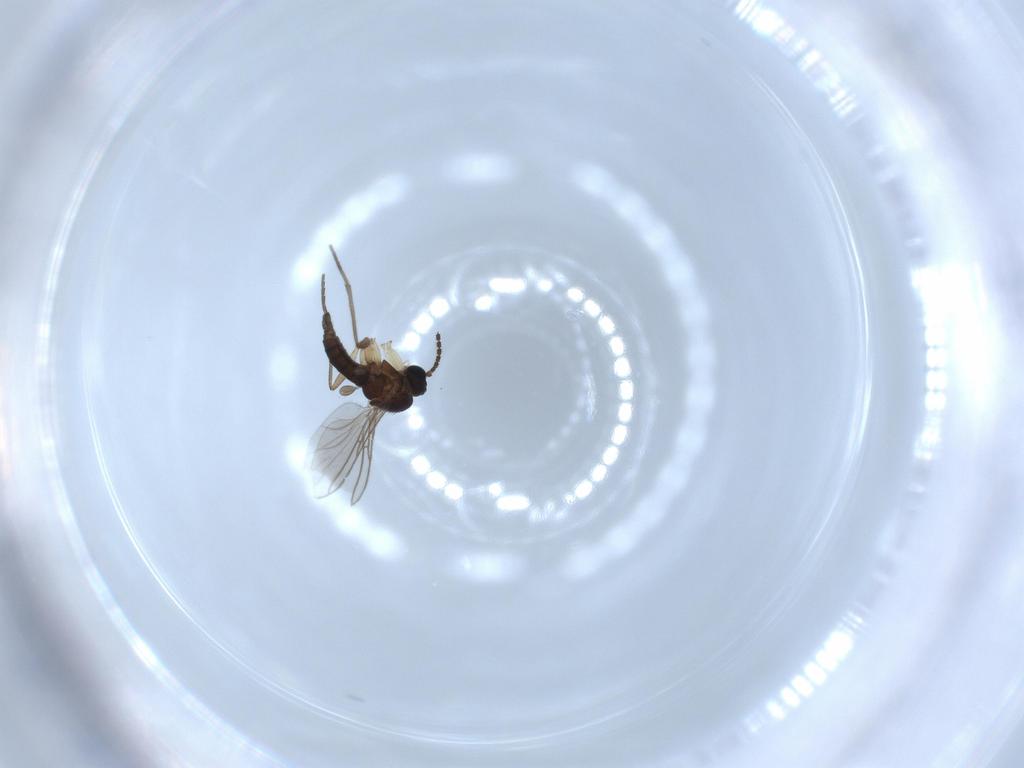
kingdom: Animalia
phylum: Arthropoda
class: Insecta
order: Diptera
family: Sciaridae
